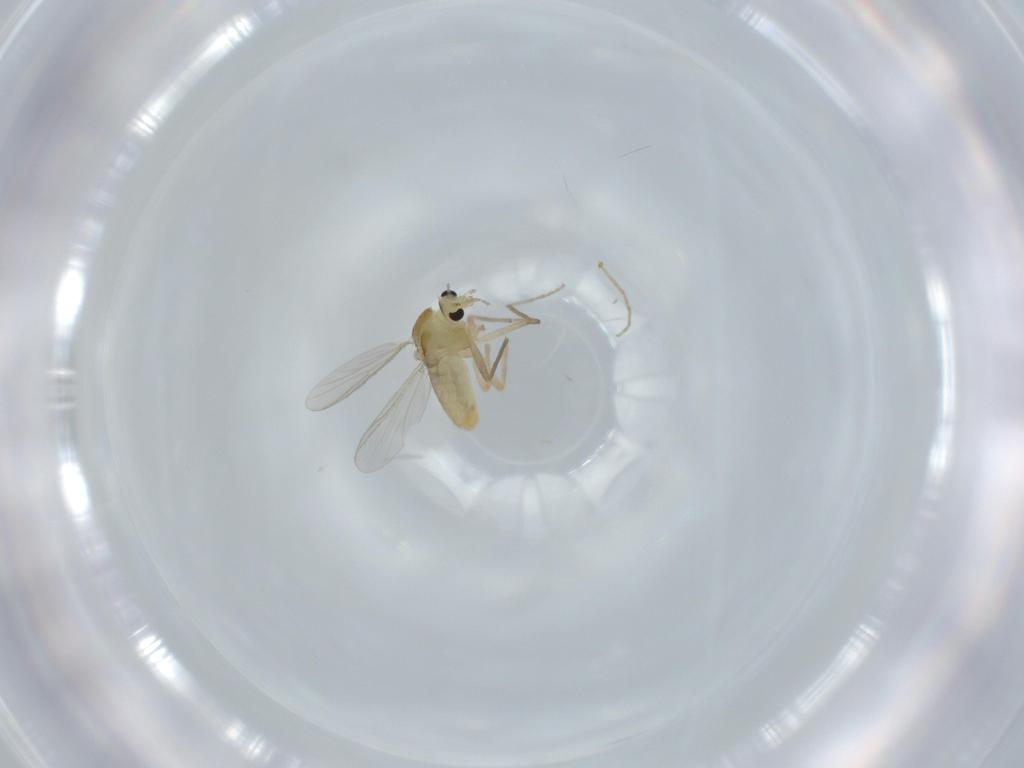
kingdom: Animalia
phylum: Arthropoda
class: Insecta
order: Diptera
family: Chironomidae
